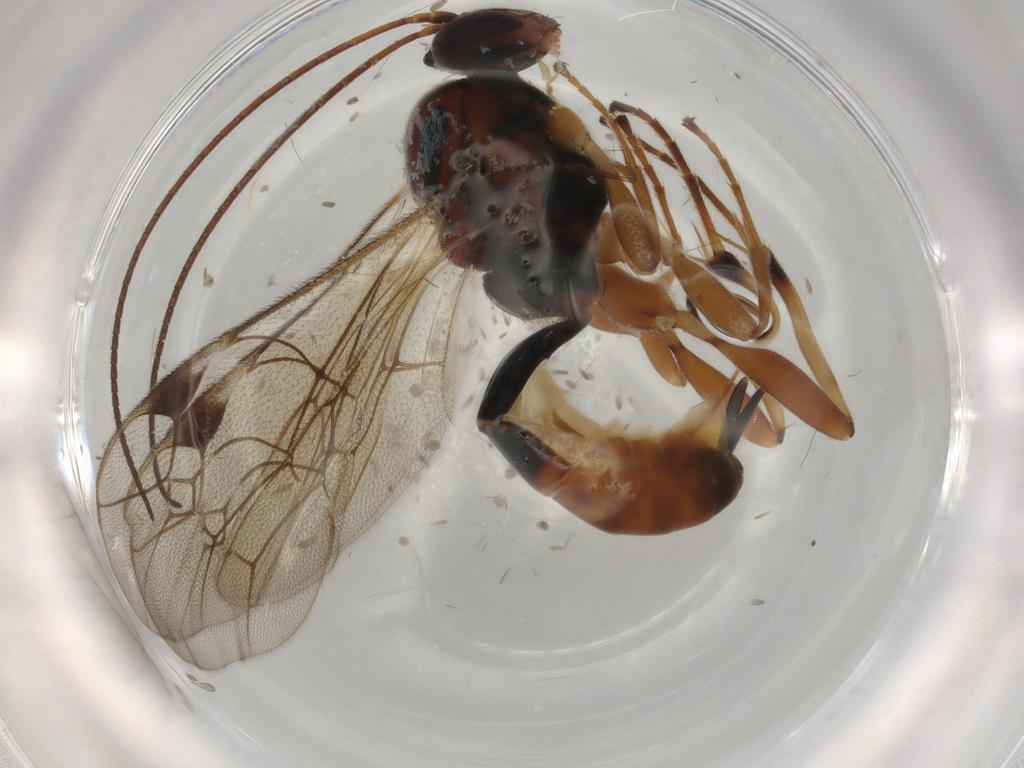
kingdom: Animalia
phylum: Arthropoda
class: Insecta
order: Hymenoptera
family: Ichneumonidae
